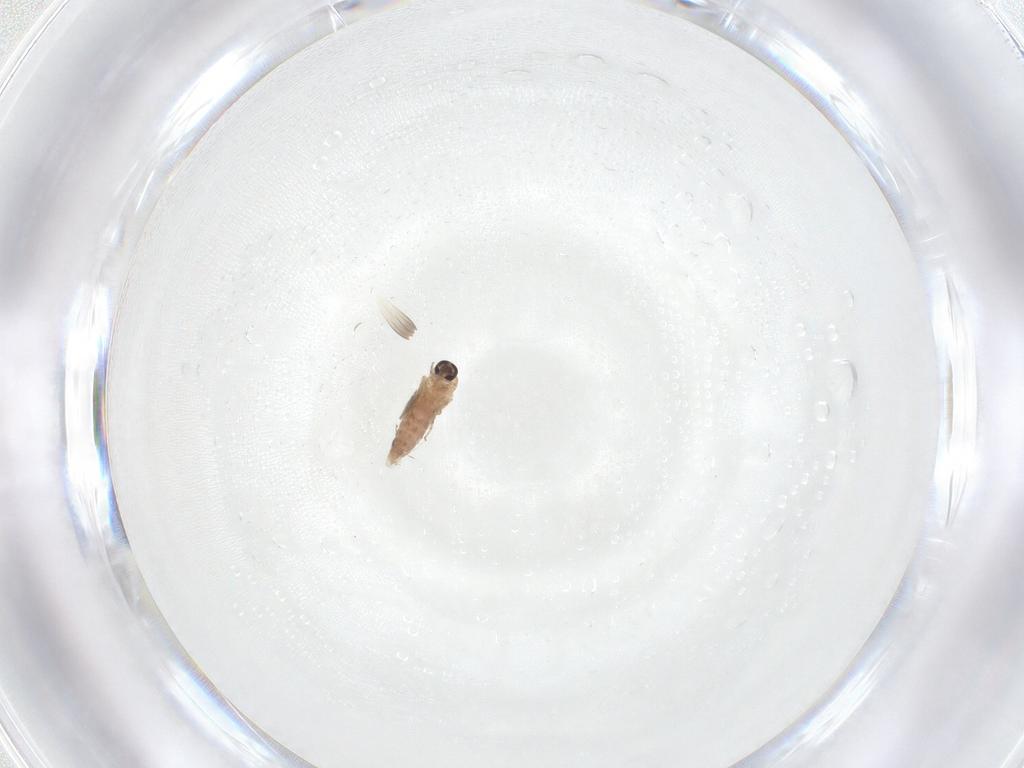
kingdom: Animalia
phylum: Arthropoda
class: Insecta
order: Diptera
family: Ceratopogonidae
